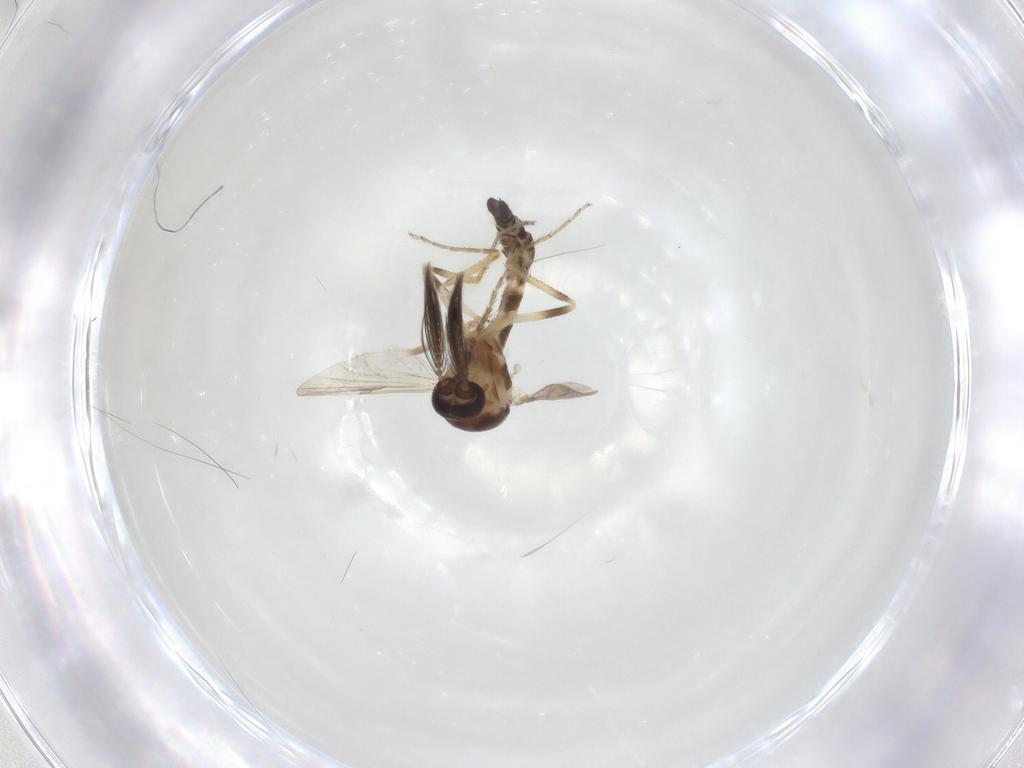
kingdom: Animalia
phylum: Arthropoda
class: Insecta
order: Diptera
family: Ceratopogonidae
